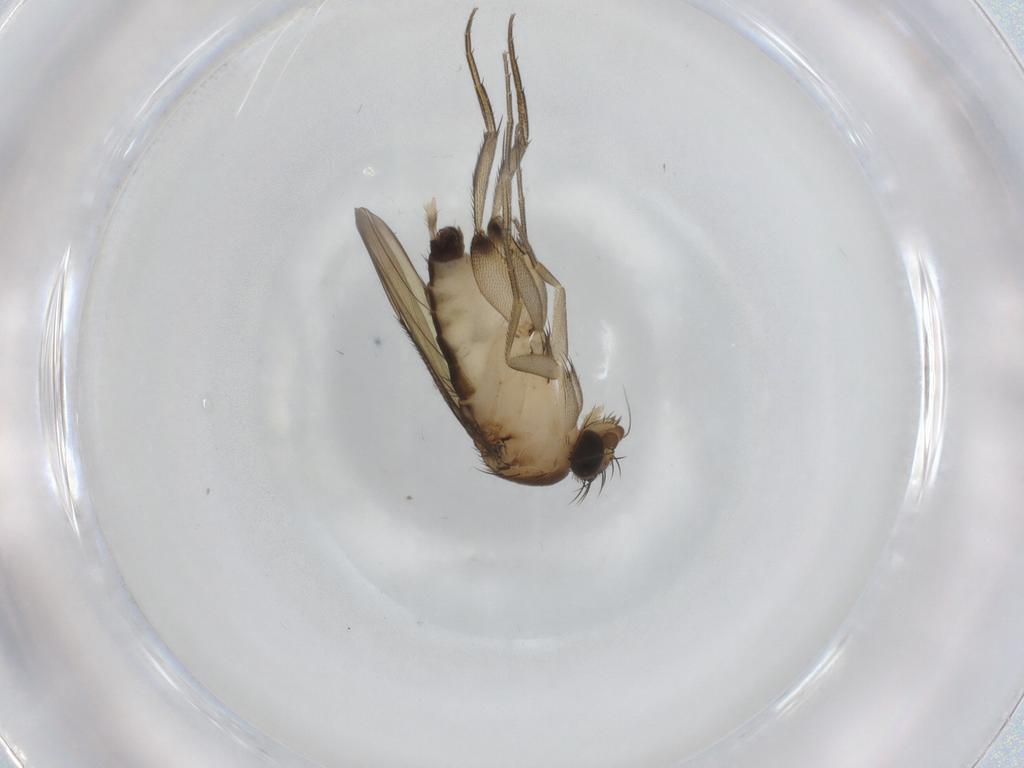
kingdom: Animalia
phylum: Arthropoda
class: Insecta
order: Diptera
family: Phoridae
